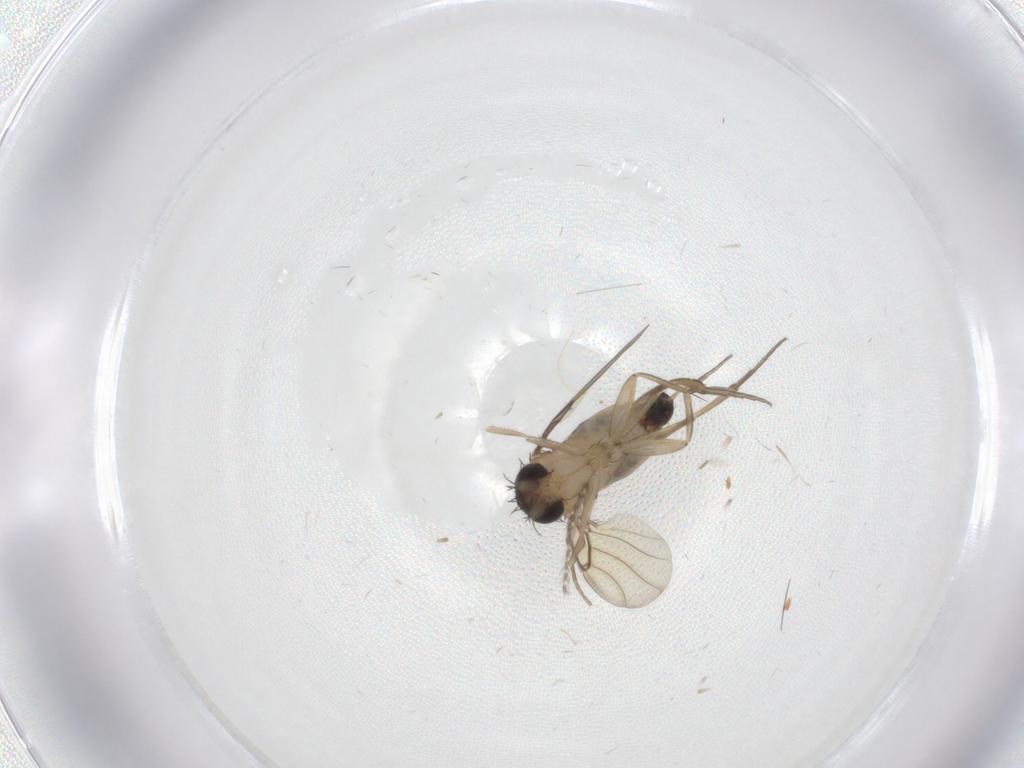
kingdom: Animalia
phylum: Arthropoda
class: Insecta
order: Diptera
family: Phoridae
